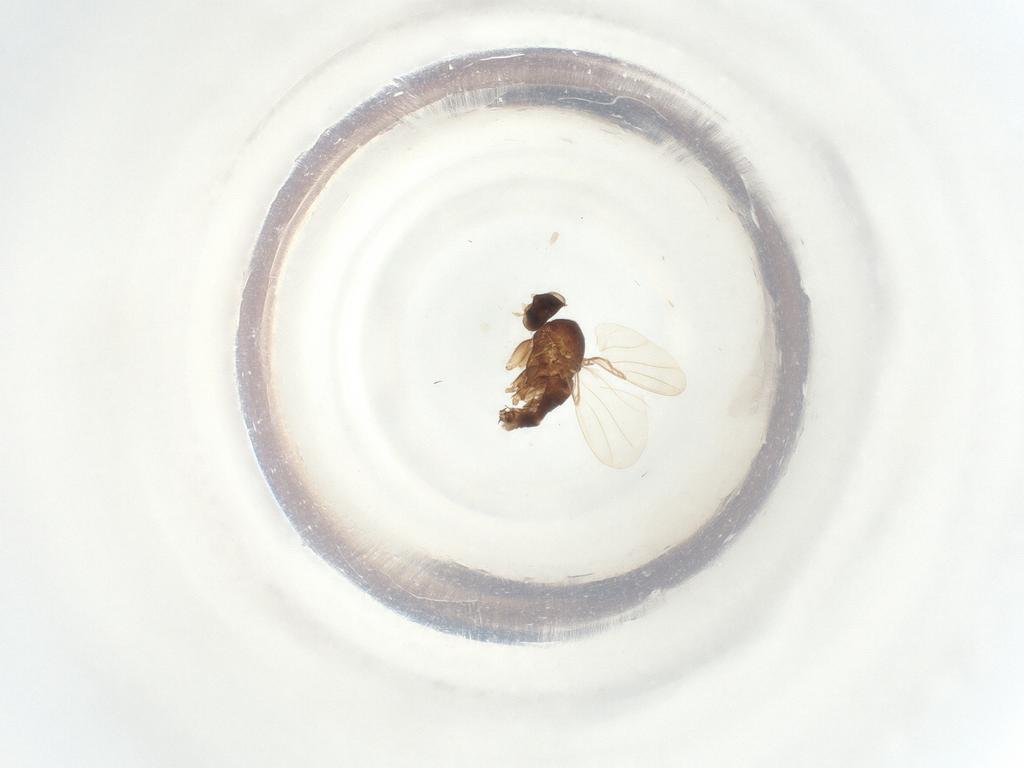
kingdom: Animalia
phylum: Arthropoda
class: Insecta
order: Diptera
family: Phoridae
